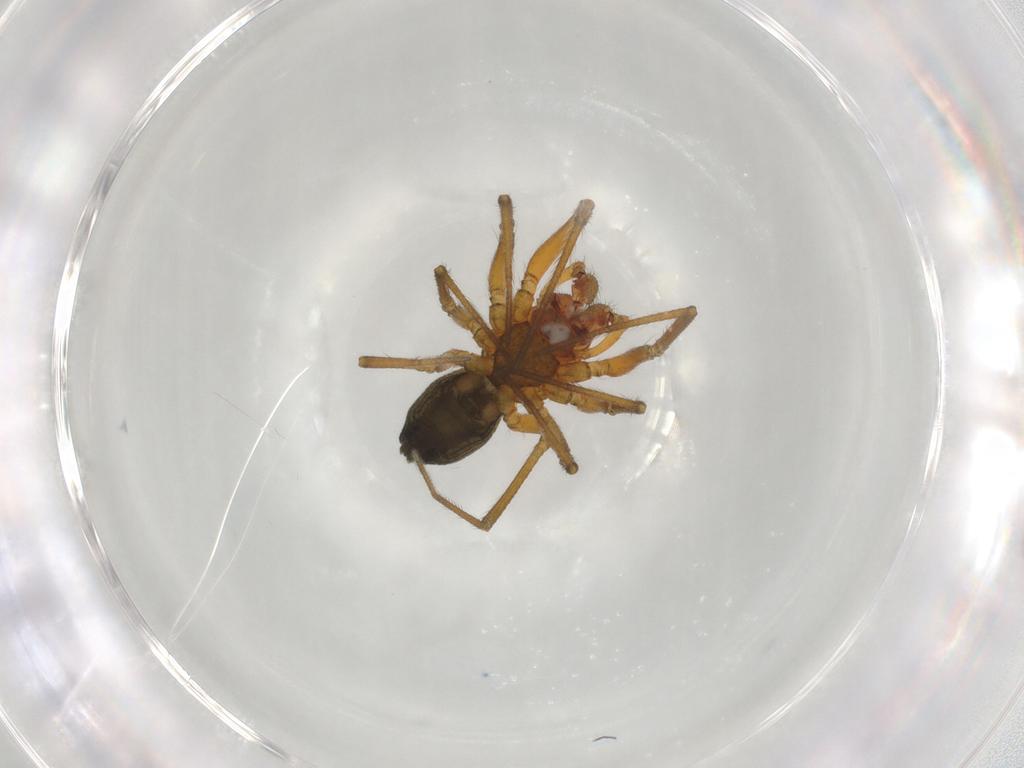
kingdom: Animalia
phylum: Arthropoda
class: Arachnida
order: Araneae
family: Linyphiidae
